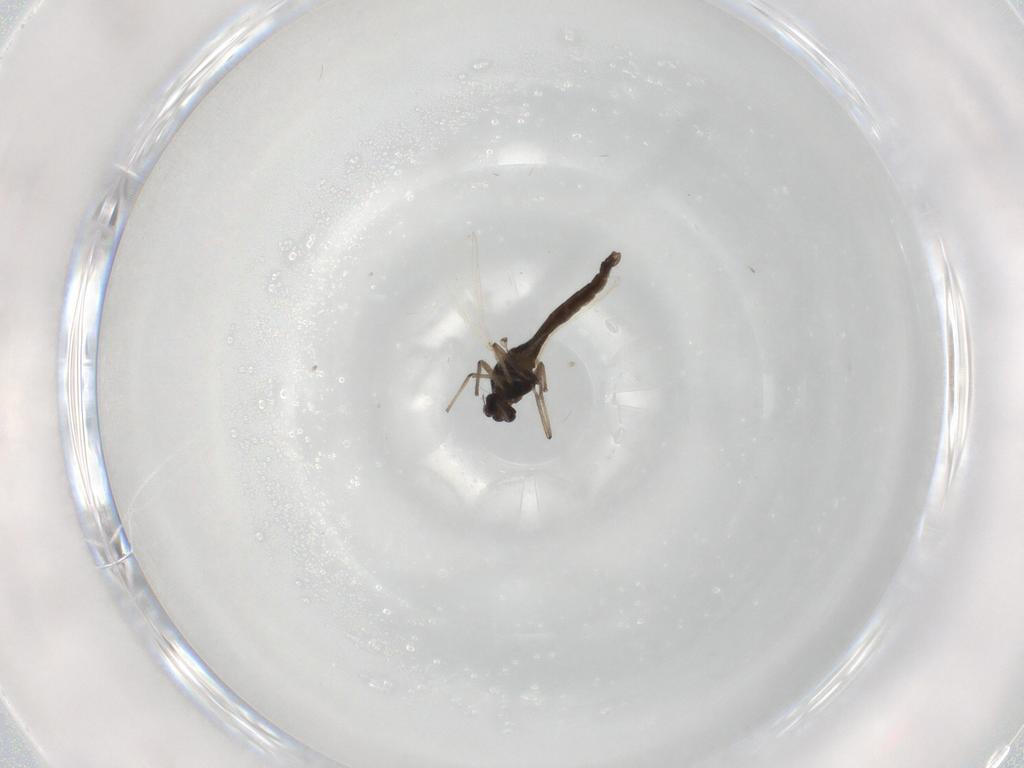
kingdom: Animalia
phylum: Arthropoda
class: Insecta
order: Diptera
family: Chironomidae
